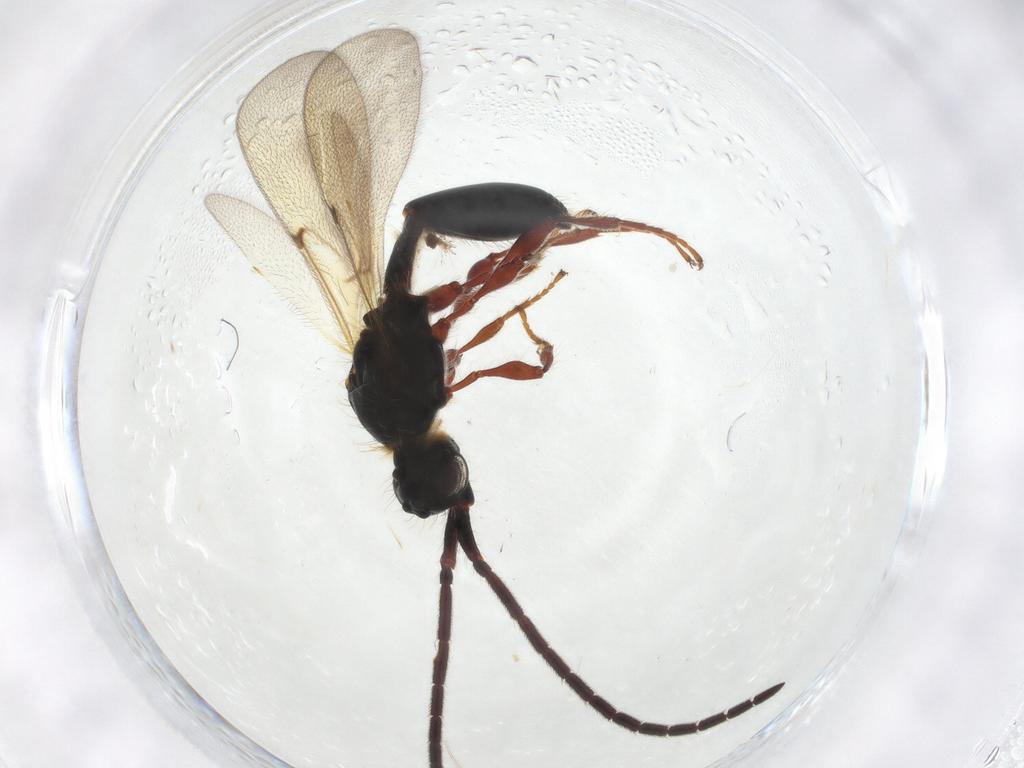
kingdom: Animalia
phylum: Arthropoda
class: Insecta
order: Hymenoptera
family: Diapriidae
